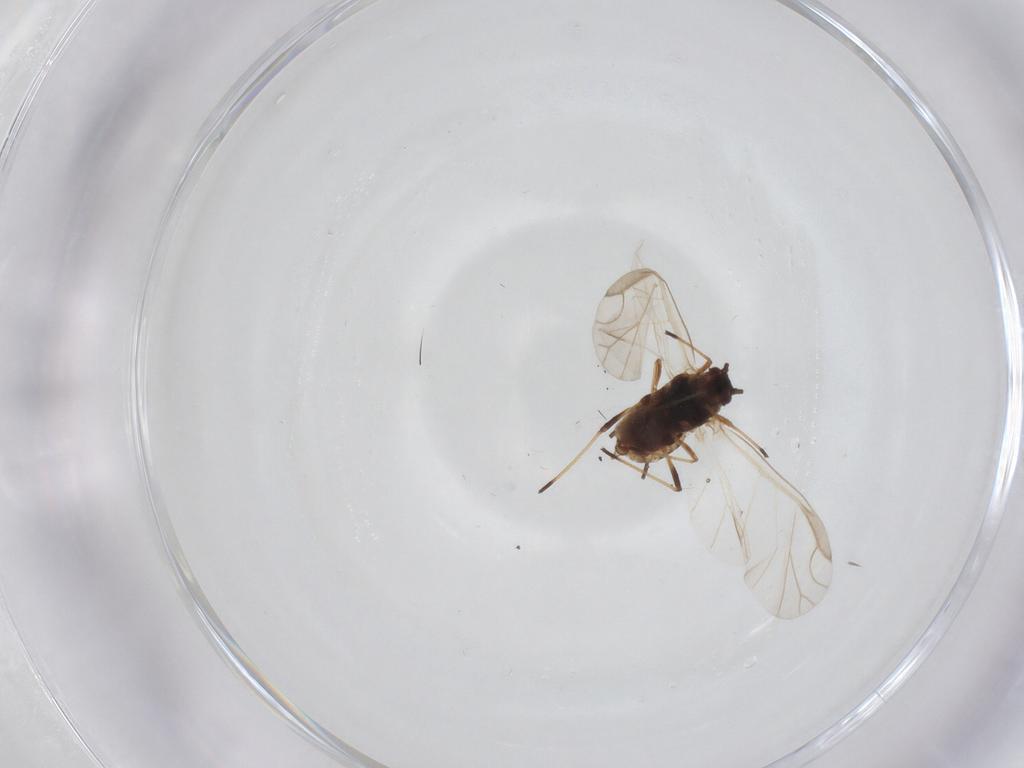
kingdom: Animalia
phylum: Arthropoda
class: Insecta
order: Hemiptera
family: Aphididae
